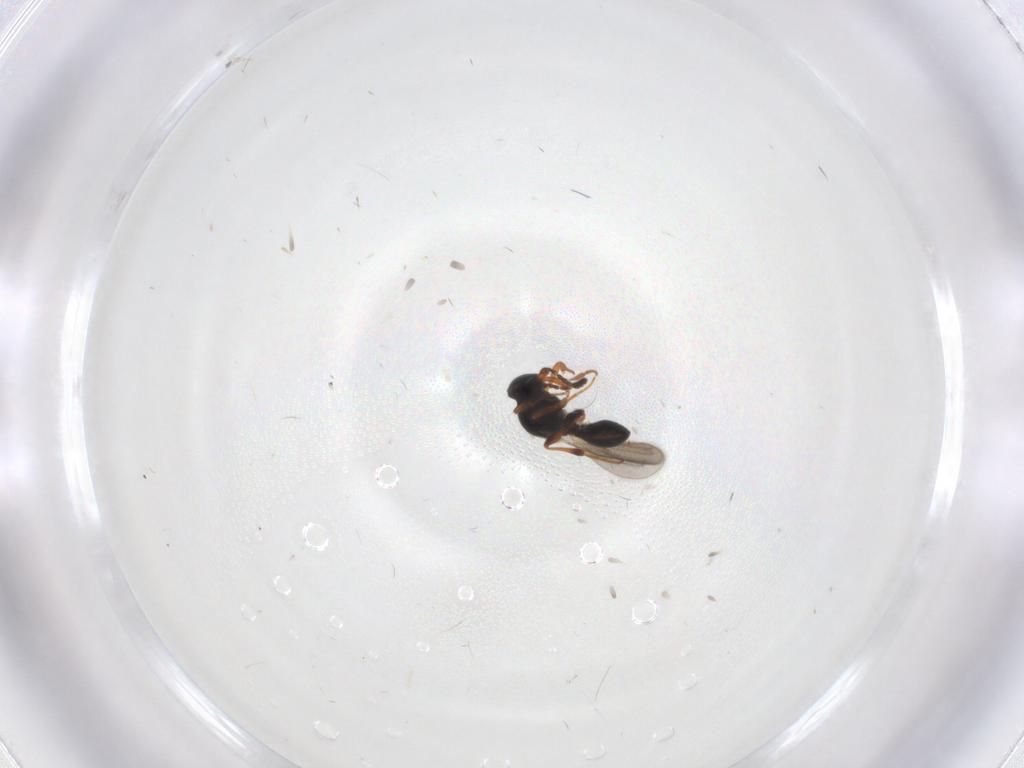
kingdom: Animalia
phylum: Arthropoda
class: Insecta
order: Hymenoptera
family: Platygastridae
